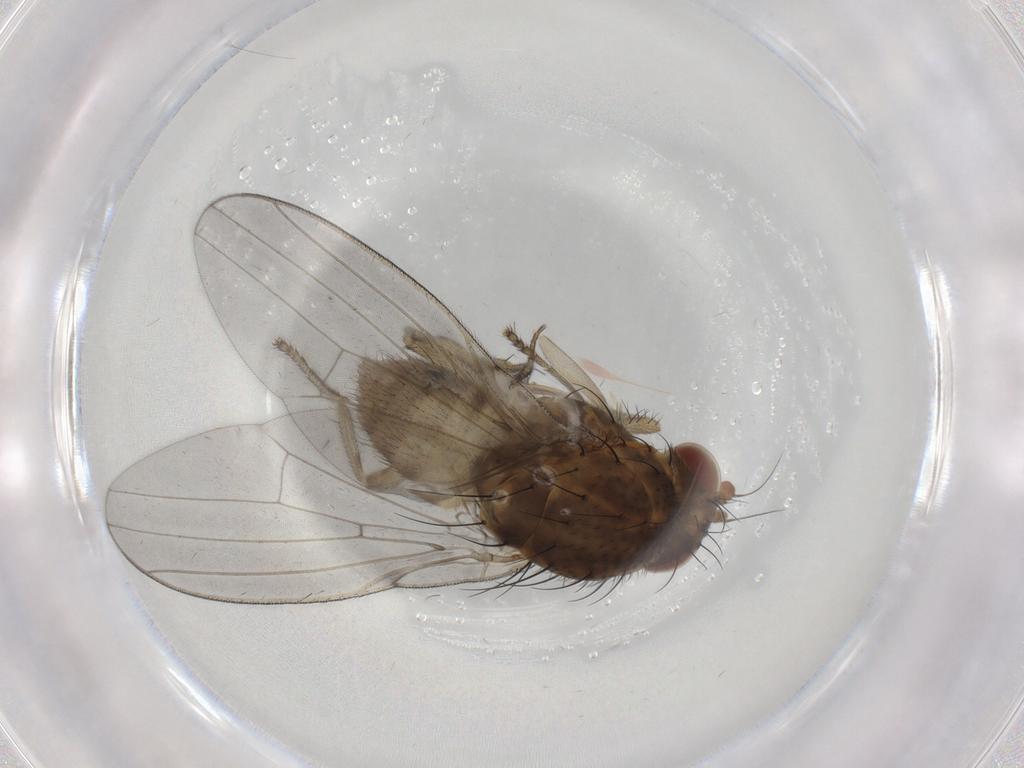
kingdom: Animalia
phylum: Arthropoda
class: Insecta
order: Diptera
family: Lauxaniidae
